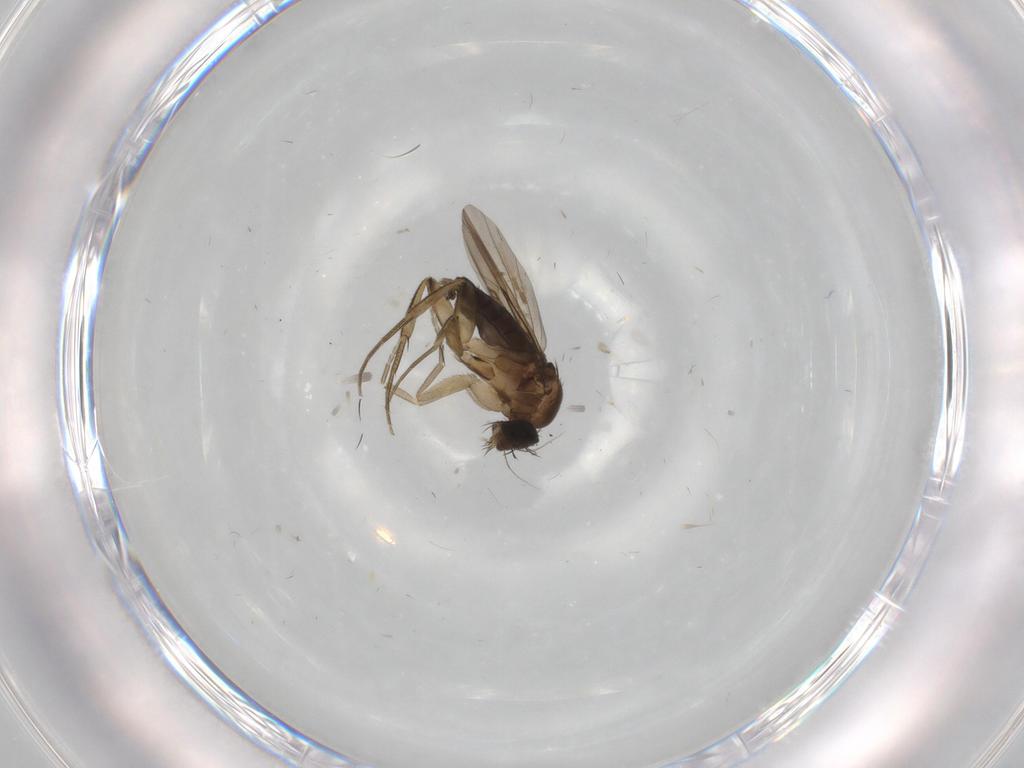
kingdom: Animalia
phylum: Arthropoda
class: Insecta
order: Diptera
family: Chironomidae
